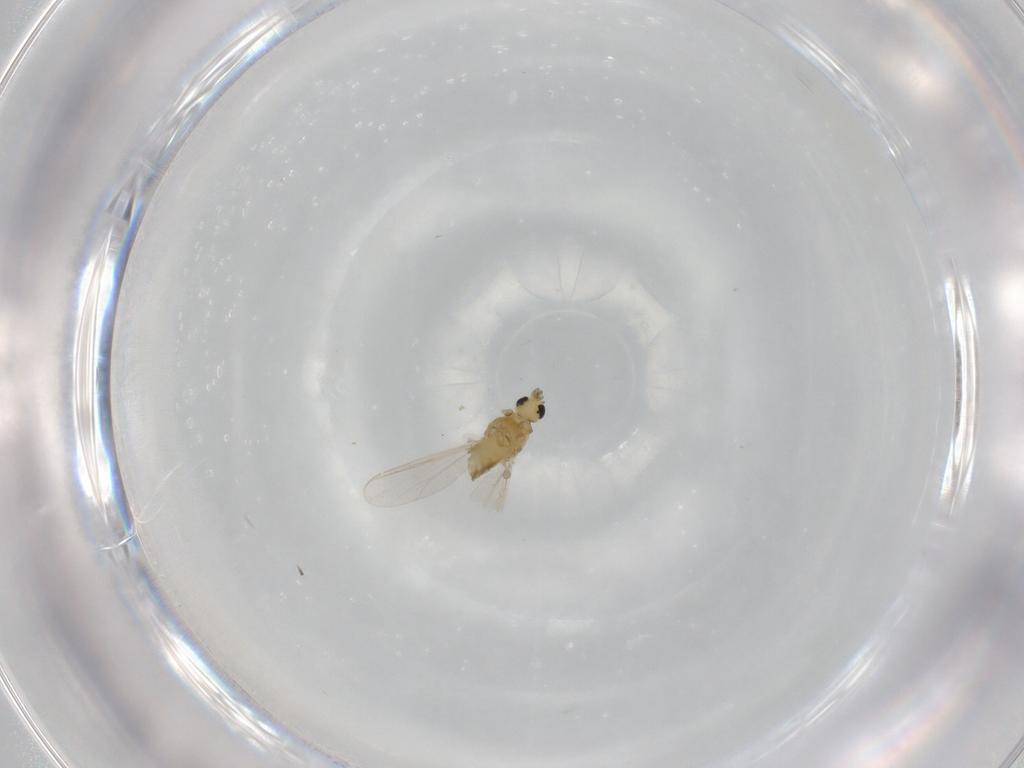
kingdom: Animalia
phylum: Arthropoda
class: Insecta
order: Diptera
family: Chironomidae
